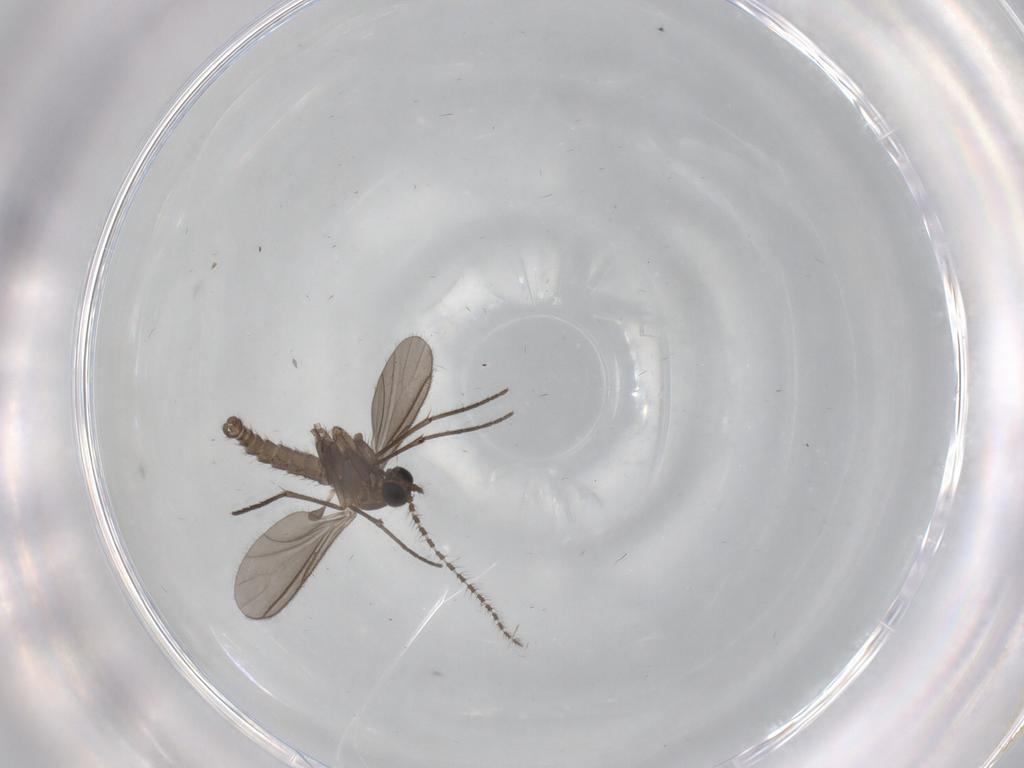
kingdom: Animalia
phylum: Arthropoda
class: Insecta
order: Diptera
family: Sciaridae
